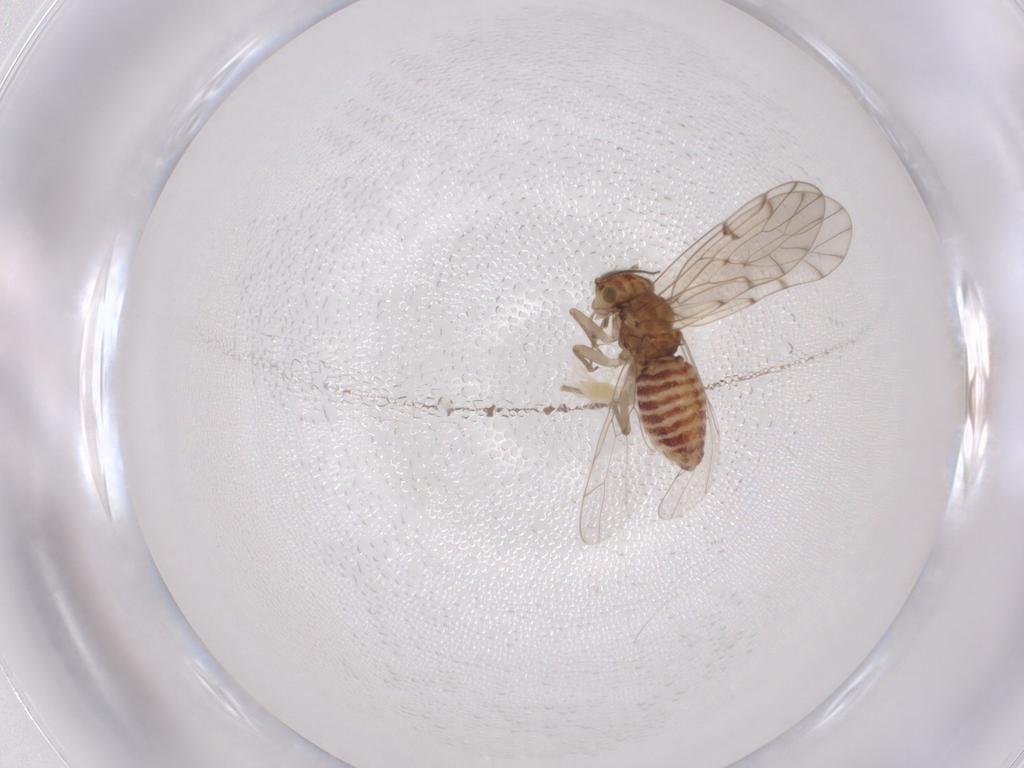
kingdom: Animalia
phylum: Arthropoda
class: Arachnida
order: Trombidiformes
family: Tetranychidae
